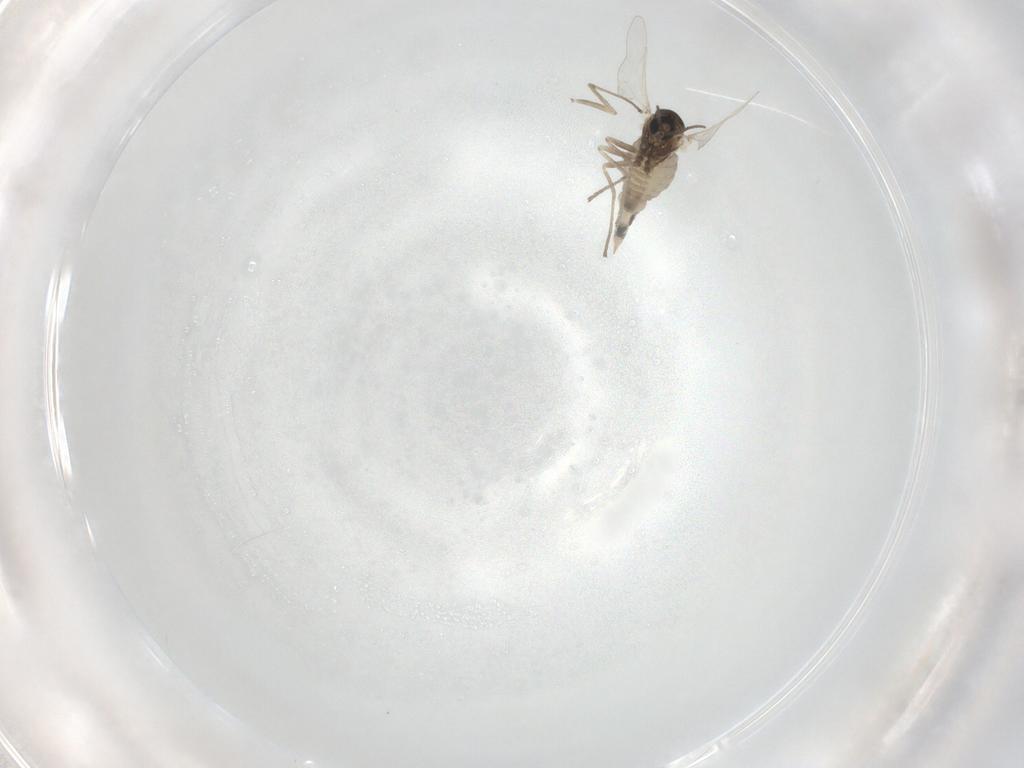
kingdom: Animalia
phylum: Arthropoda
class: Insecta
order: Diptera
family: Cecidomyiidae
